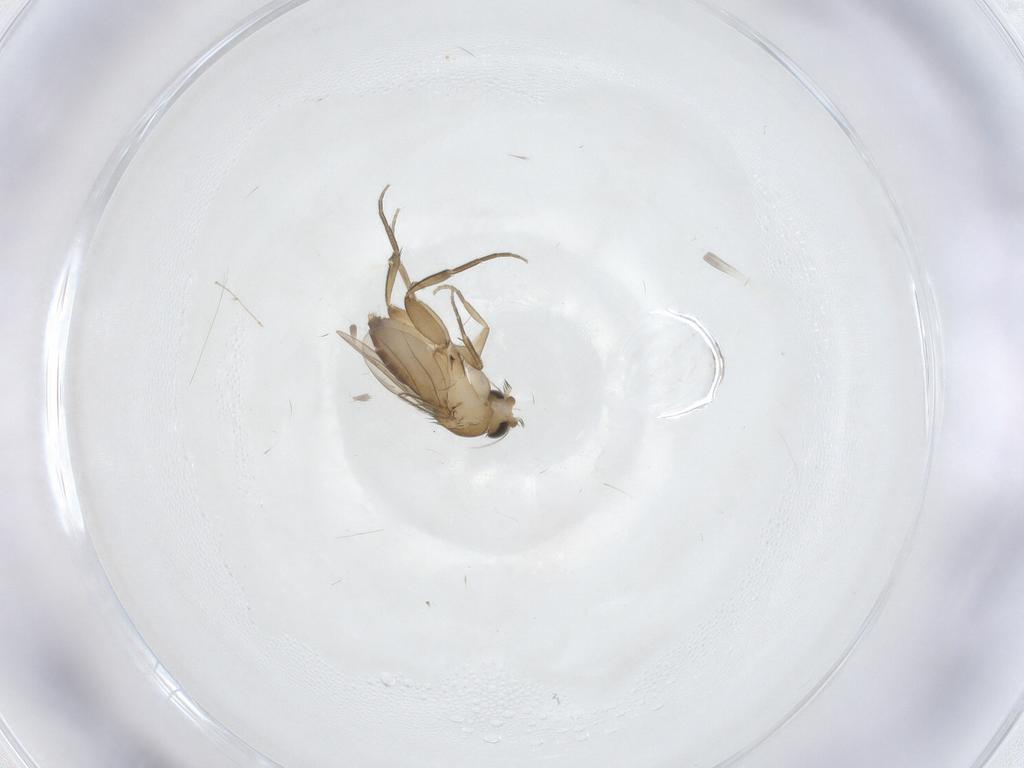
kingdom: Animalia
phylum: Arthropoda
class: Insecta
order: Diptera
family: Phoridae
